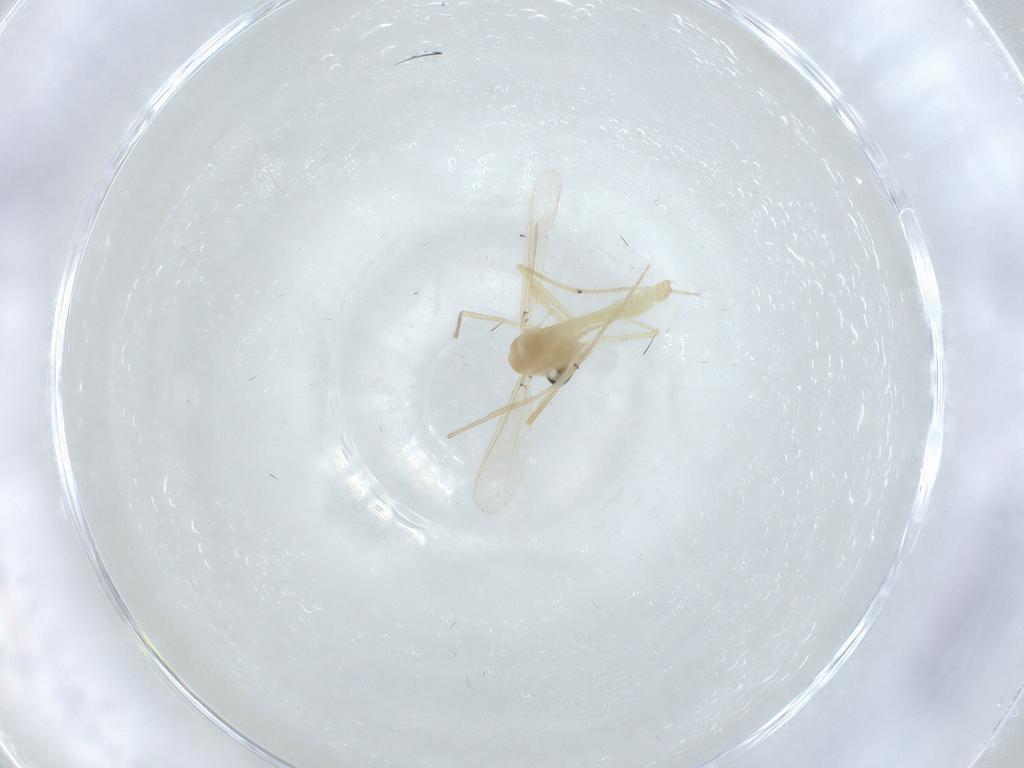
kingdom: Animalia
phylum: Arthropoda
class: Insecta
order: Diptera
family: Chironomidae
